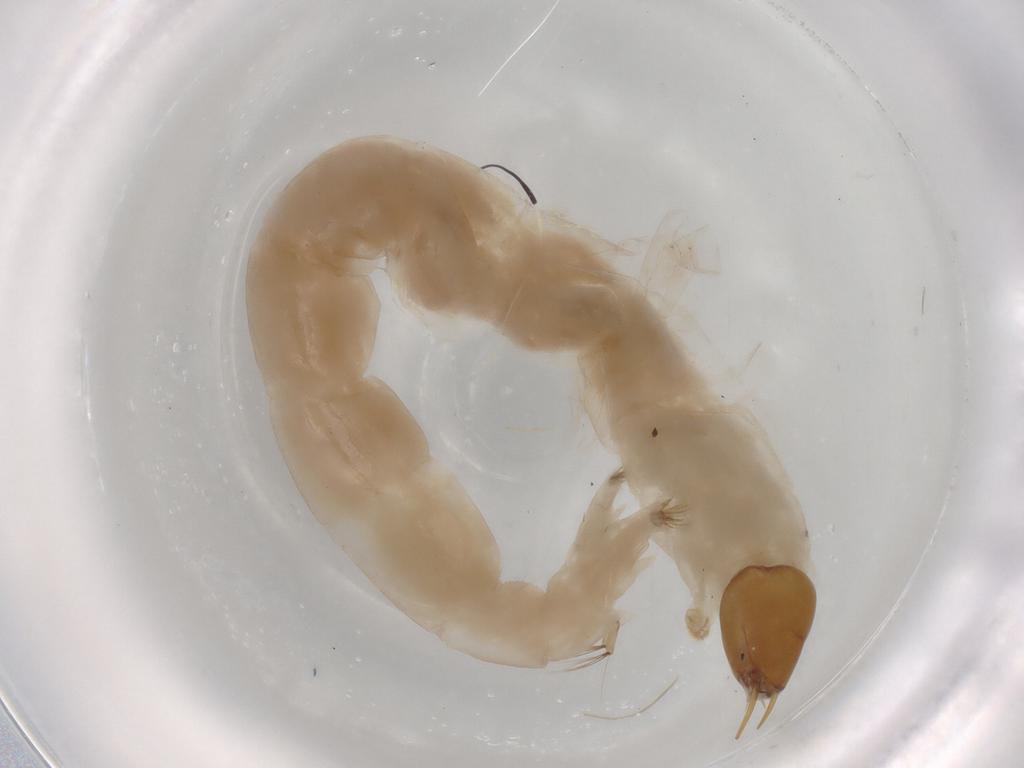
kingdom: Animalia
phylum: Arthropoda
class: Insecta
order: Diptera
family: Chironomidae
